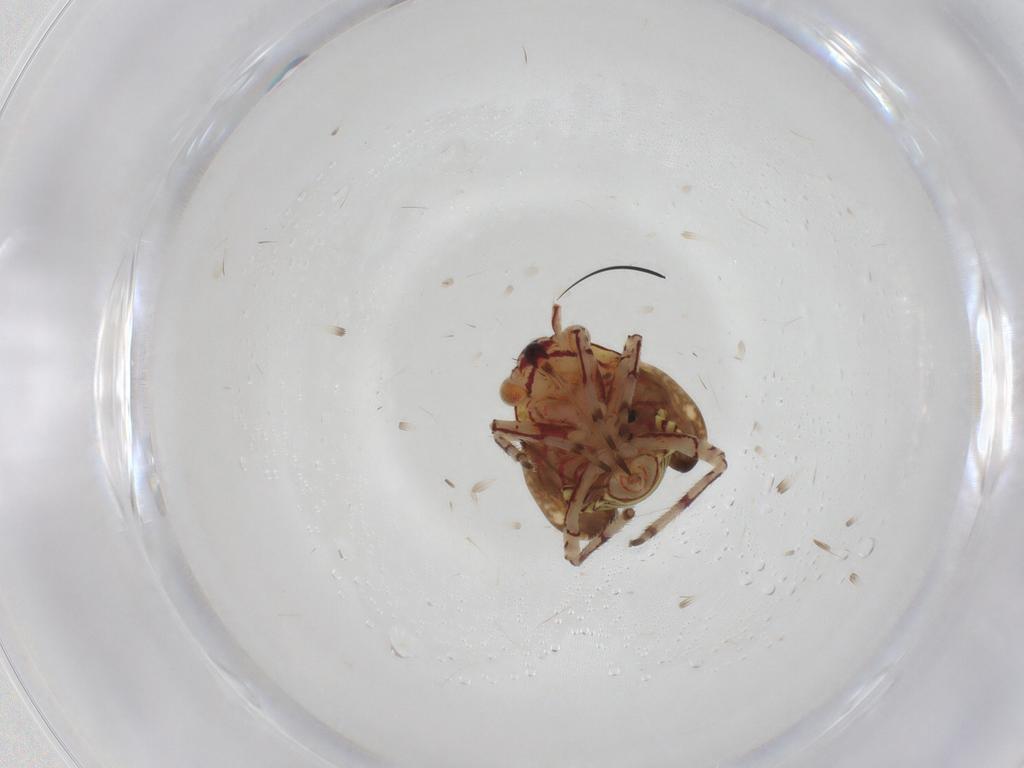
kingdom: Animalia
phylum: Arthropoda
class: Insecta
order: Hemiptera
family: Miridae
